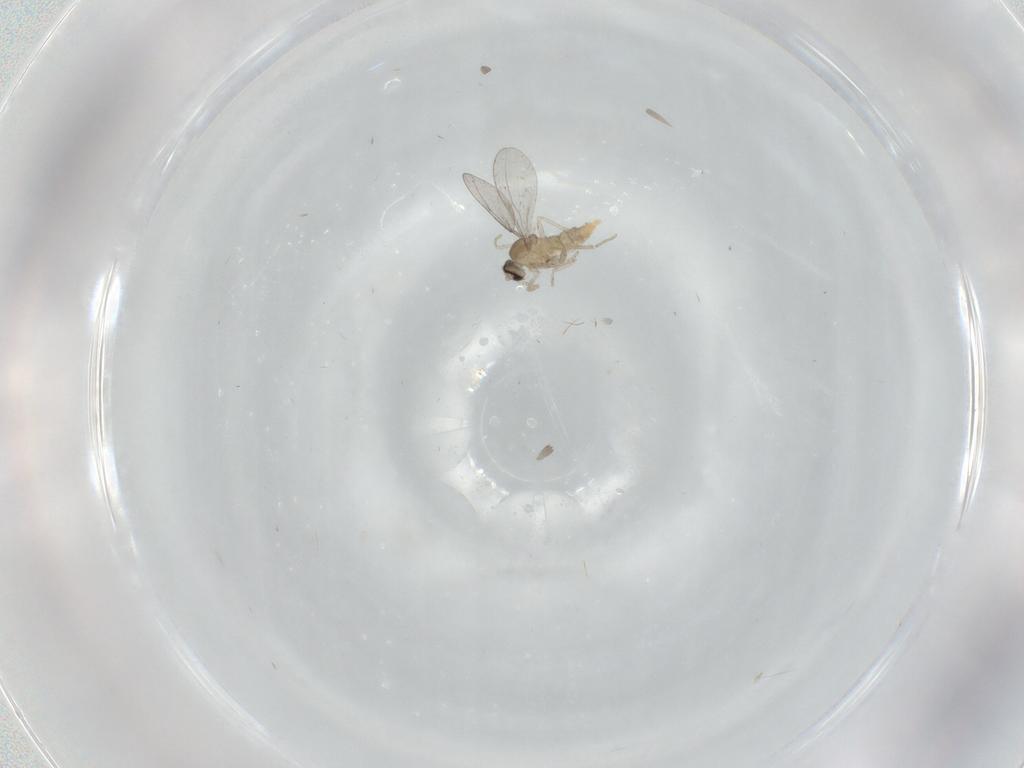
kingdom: Animalia
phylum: Arthropoda
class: Insecta
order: Diptera
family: Cecidomyiidae
